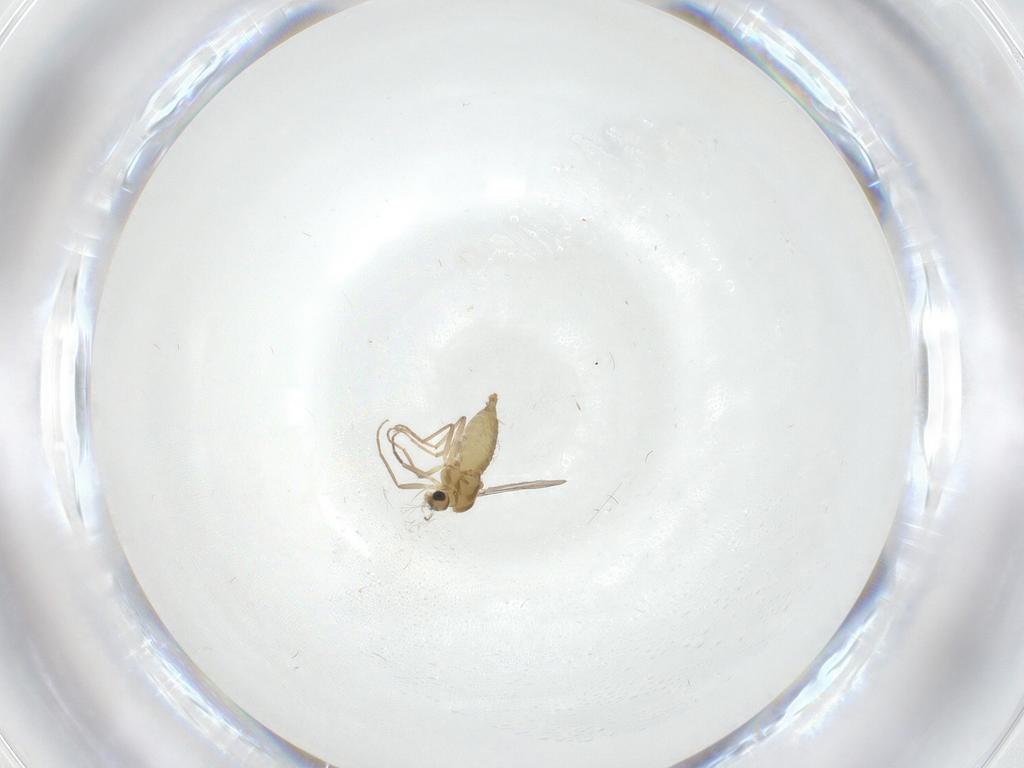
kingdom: Animalia
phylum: Arthropoda
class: Insecta
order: Diptera
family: Chironomidae
